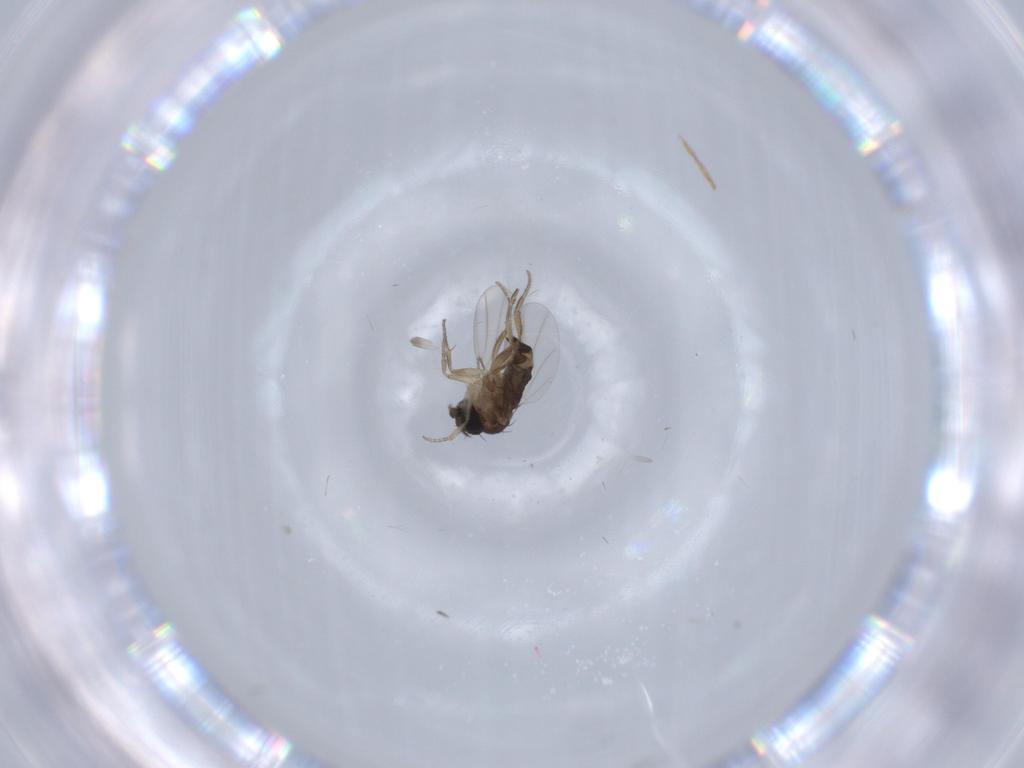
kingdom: Animalia
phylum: Arthropoda
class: Insecta
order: Diptera
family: Phoridae
